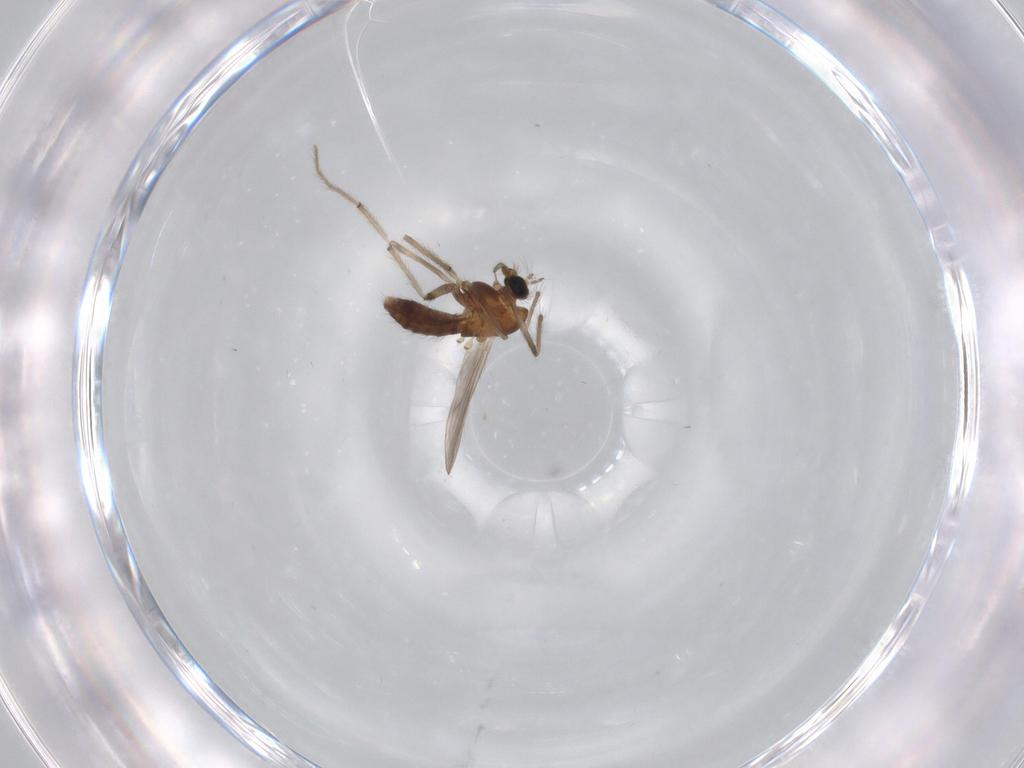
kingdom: Animalia
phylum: Arthropoda
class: Insecta
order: Diptera
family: Chironomidae
